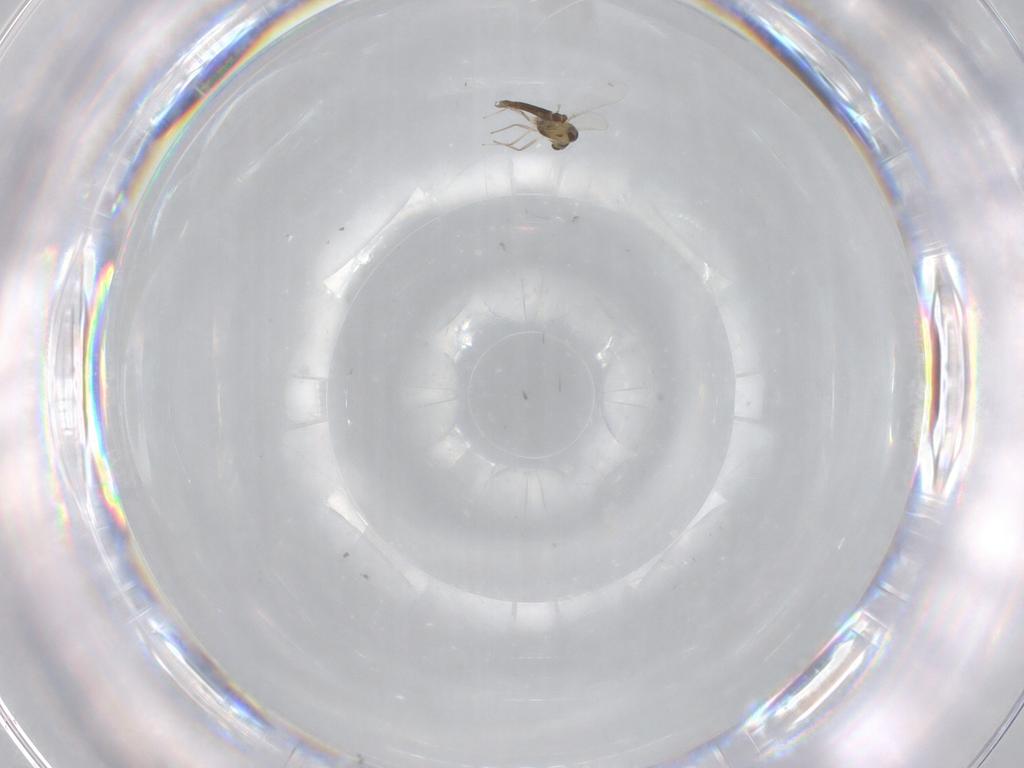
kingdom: Animalia
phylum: Arthropoda
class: Insecta
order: Diptera
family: Chironomidae
